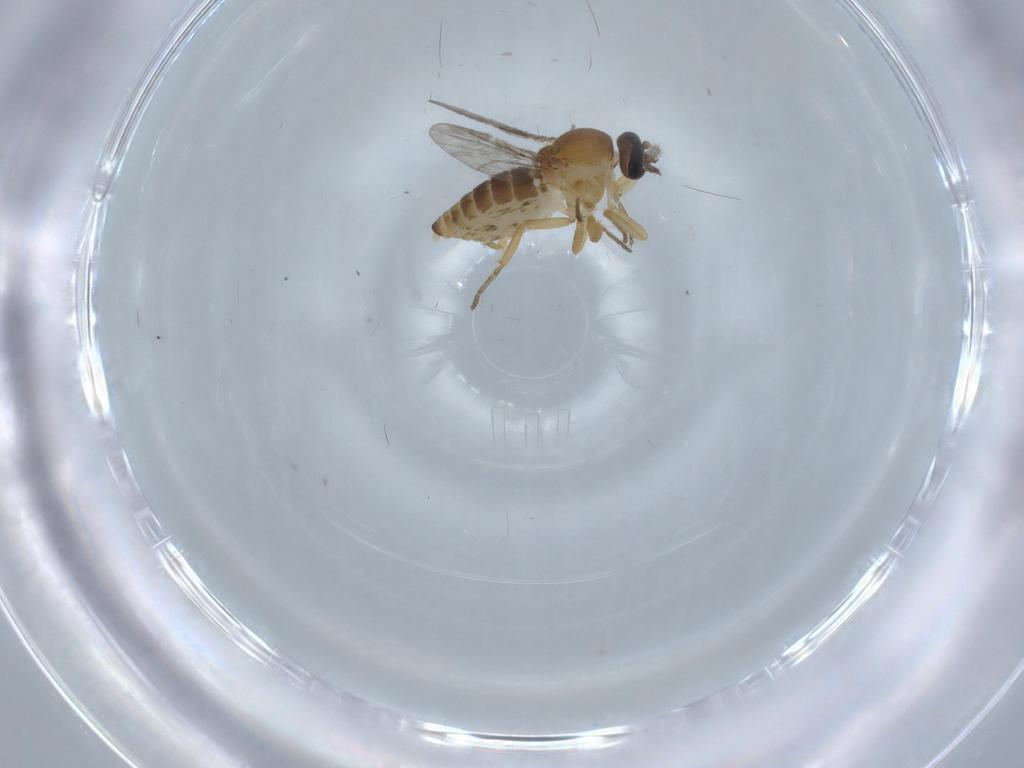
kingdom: Animalia
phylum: Arthropoda
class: Insecta
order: Diptera
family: Ceratopogonidae
